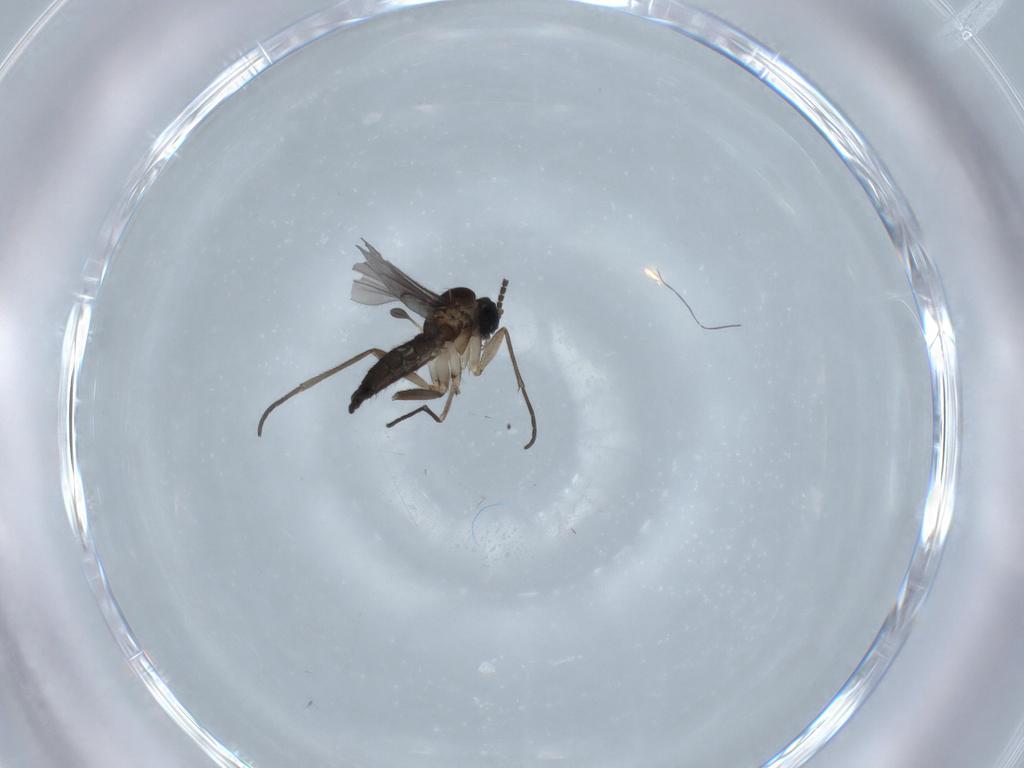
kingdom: Animalia
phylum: Arthropoda
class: Insecta
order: Diptera
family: Sciaridae
